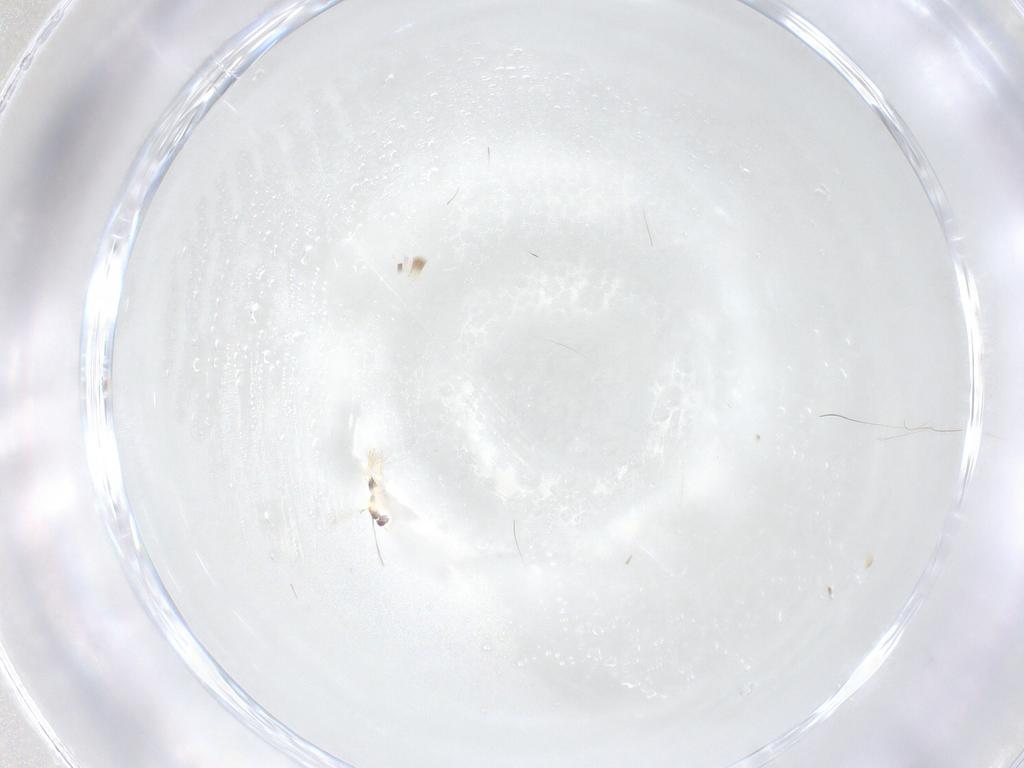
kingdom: Animalia
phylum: Arthropoda
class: Insecta
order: Hymenoptera
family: Mymaridae
